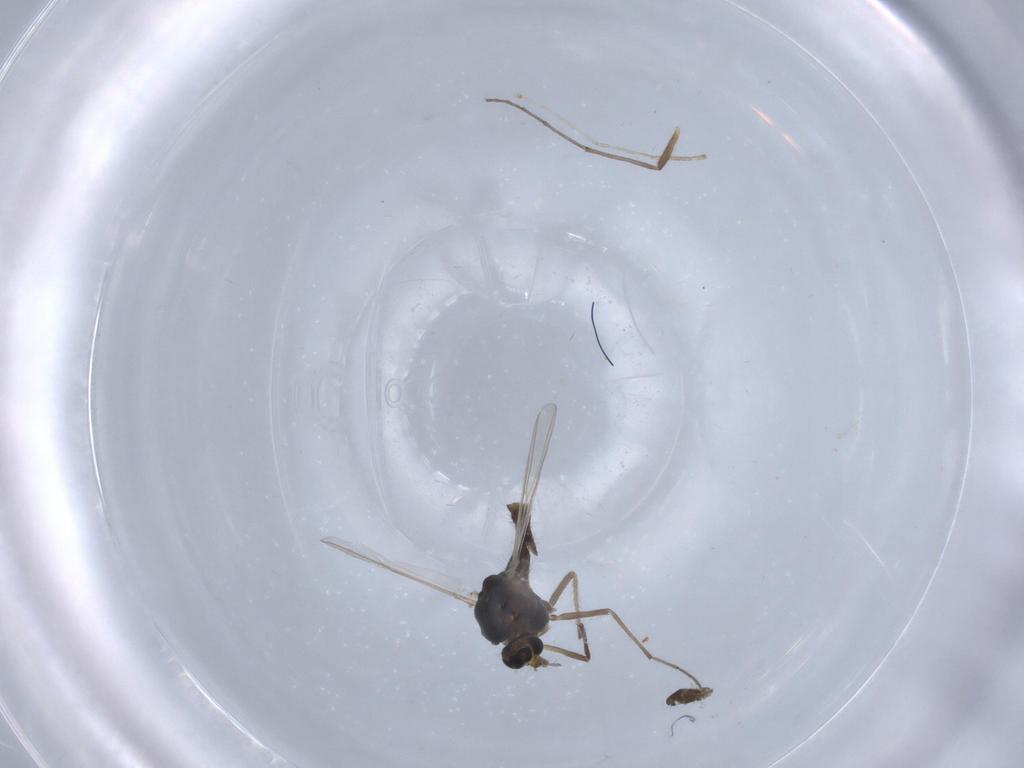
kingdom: Animalia
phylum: Arthropoda
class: Insecta
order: Diptera
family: Chironomidae
